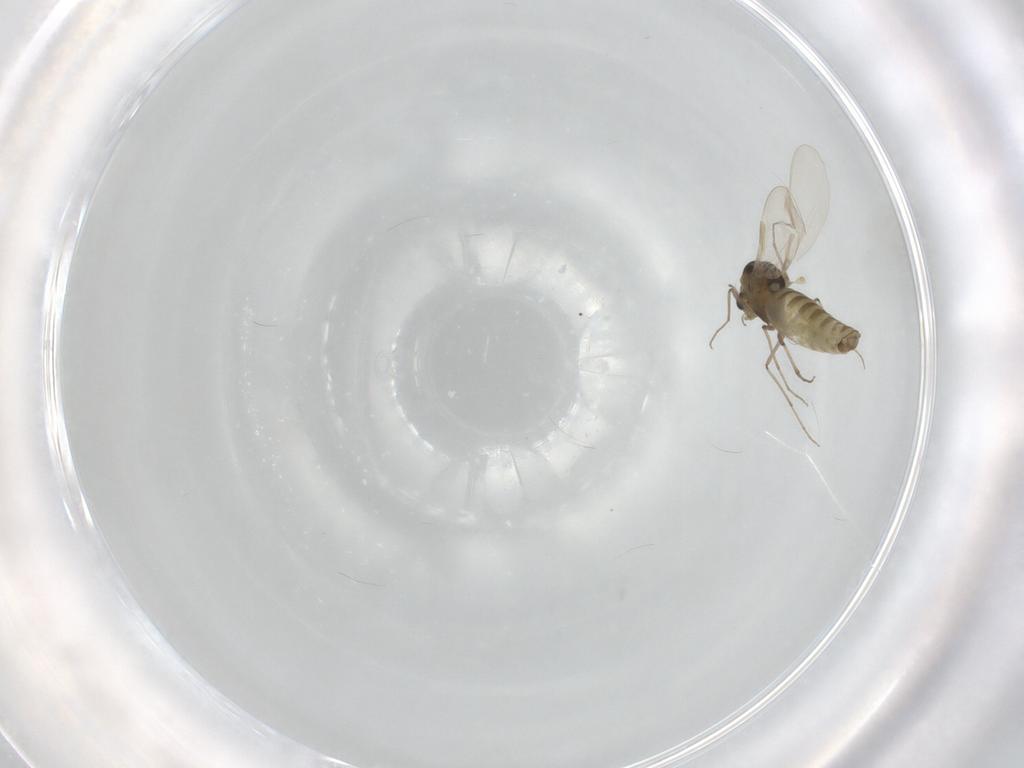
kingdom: Animalia
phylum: Arthropoda
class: Insecta
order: Diptera
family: Chironomidae
